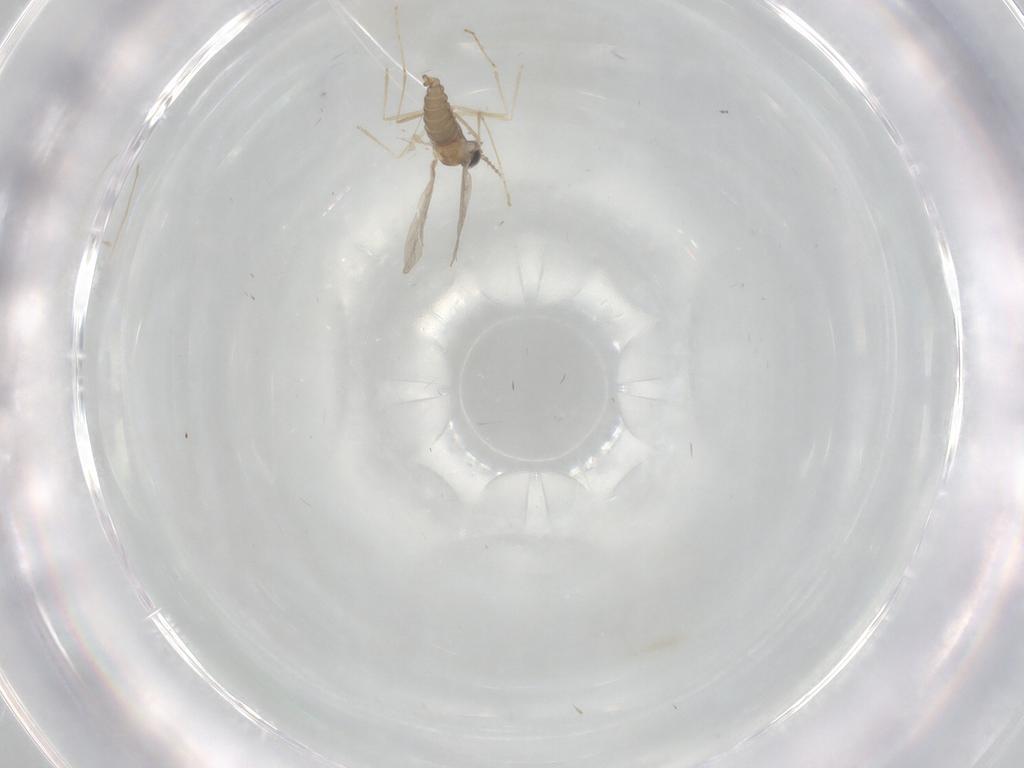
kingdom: Animalia
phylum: Arthropoda
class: Insecta
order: Diptera
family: Cecidomyiidae
